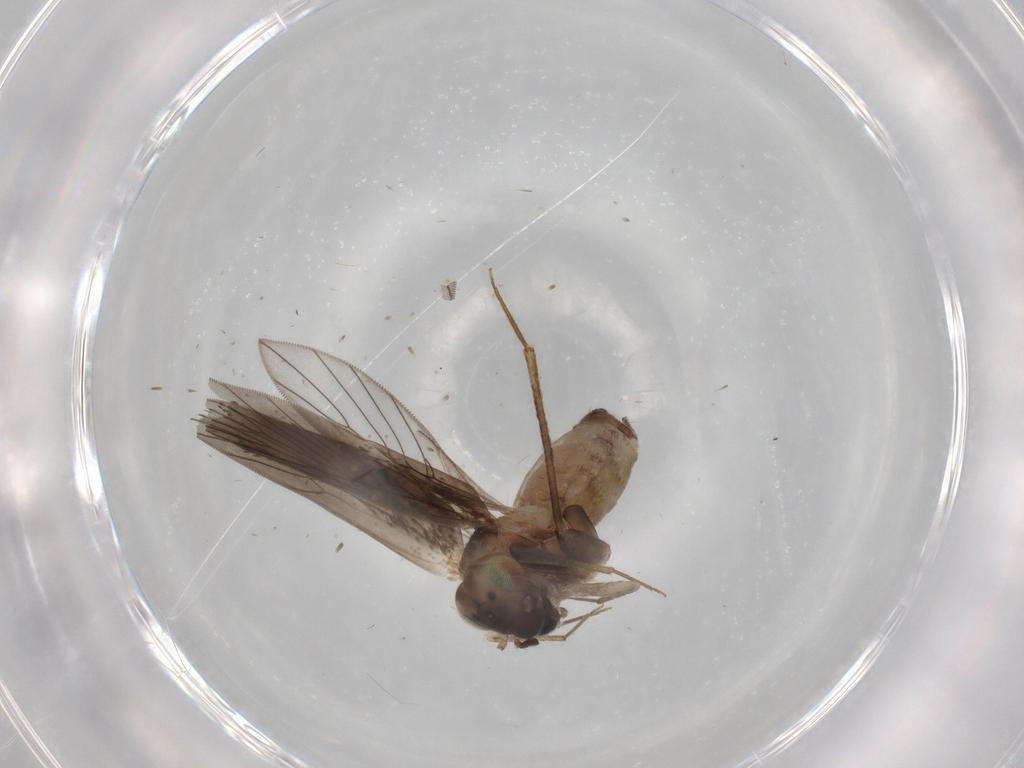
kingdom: Animalia
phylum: Arthropoda
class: Insecta
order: Psocodea
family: Lepidopsocidae
